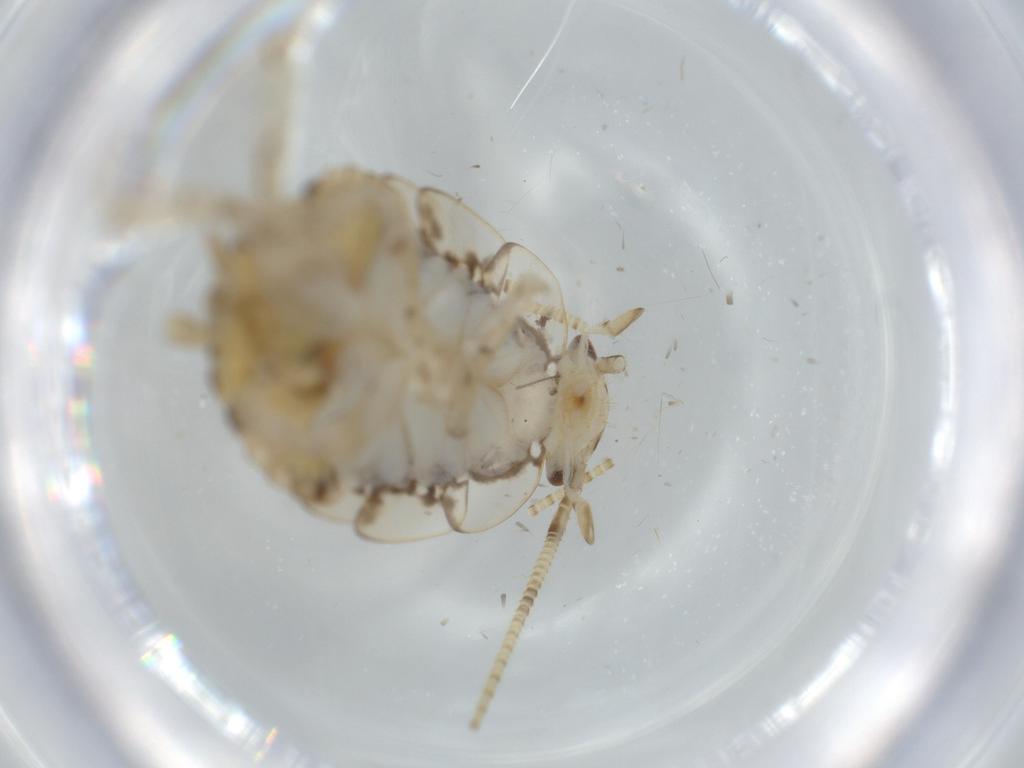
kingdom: Animalia
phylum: Arthropoda
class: Insecta
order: Blattodea
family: Ectobiidae
